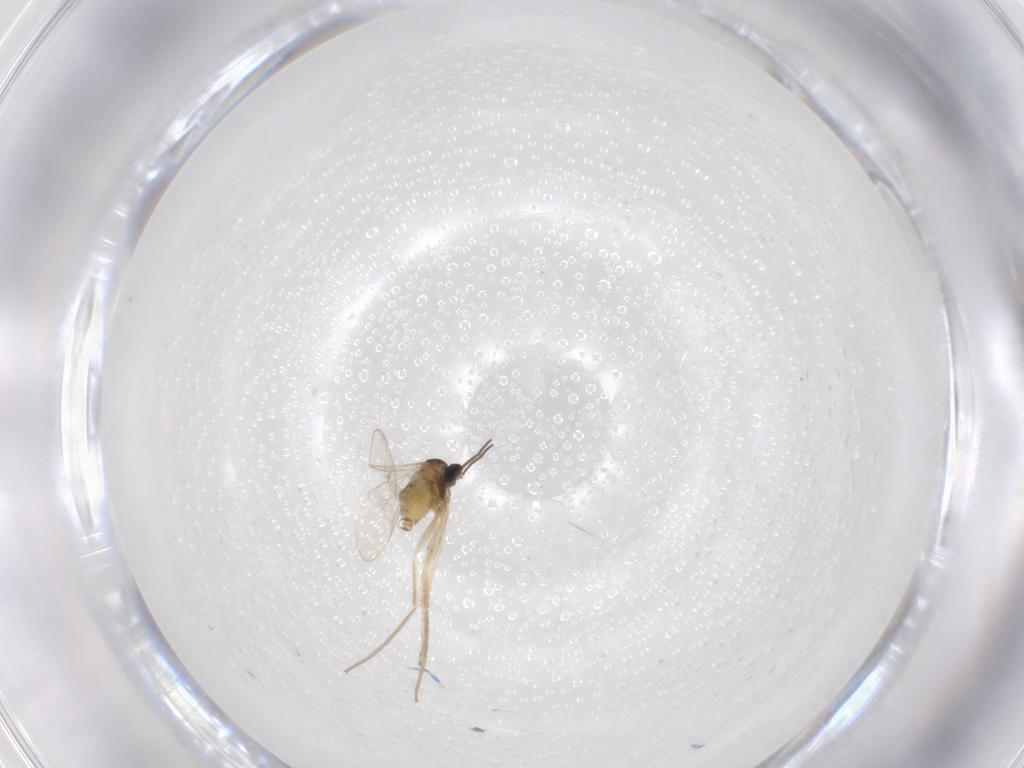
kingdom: Animalia
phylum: Arthropoda
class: Insecta
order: Diptera
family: Cecidomyiidae
